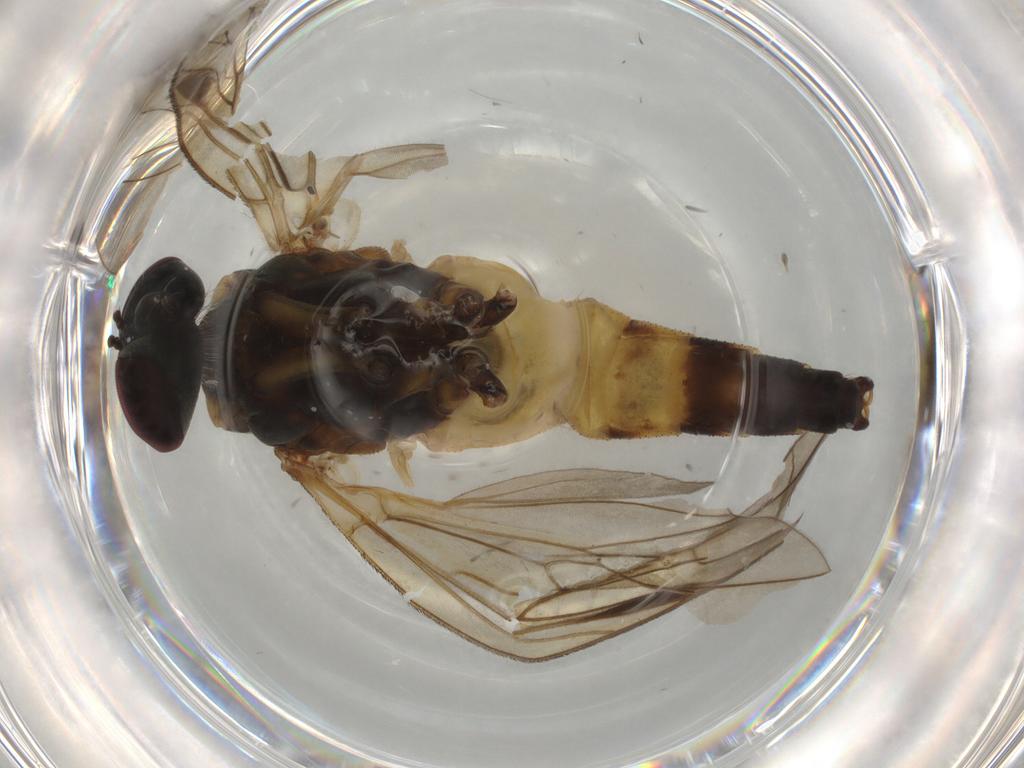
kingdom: Animalia
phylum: Arthropoda
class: Insecta
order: Diptera
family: Rhagionidae
